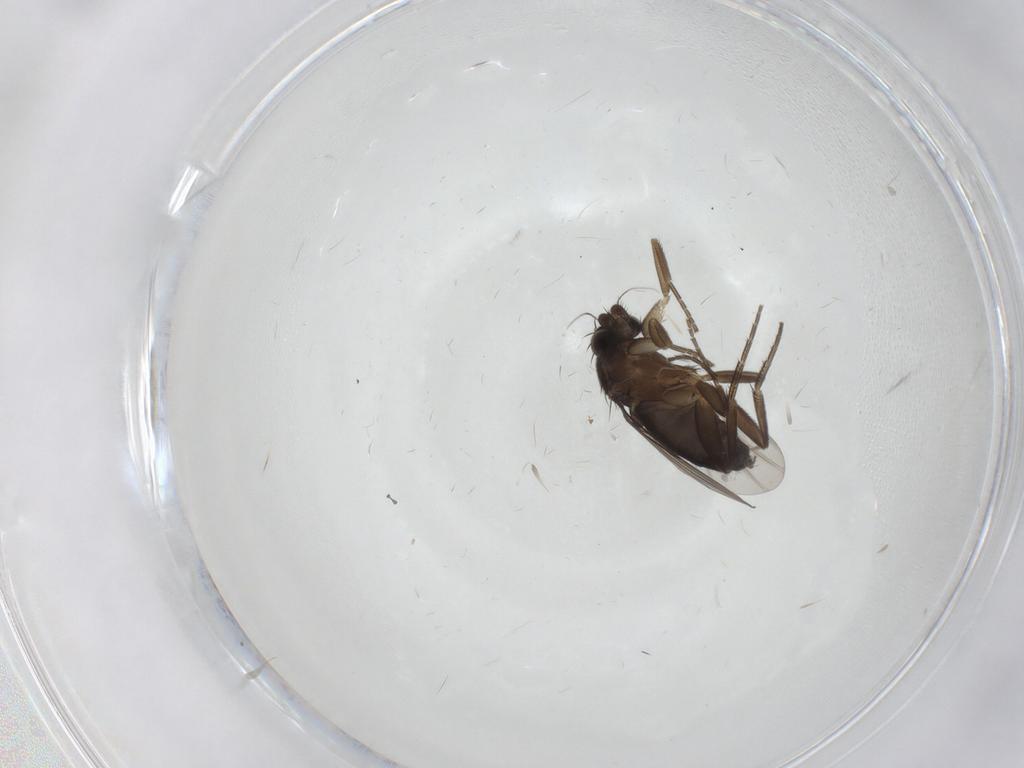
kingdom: Animalia
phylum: Arthropoda
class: Insecta
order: Diptera
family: Phoridae
